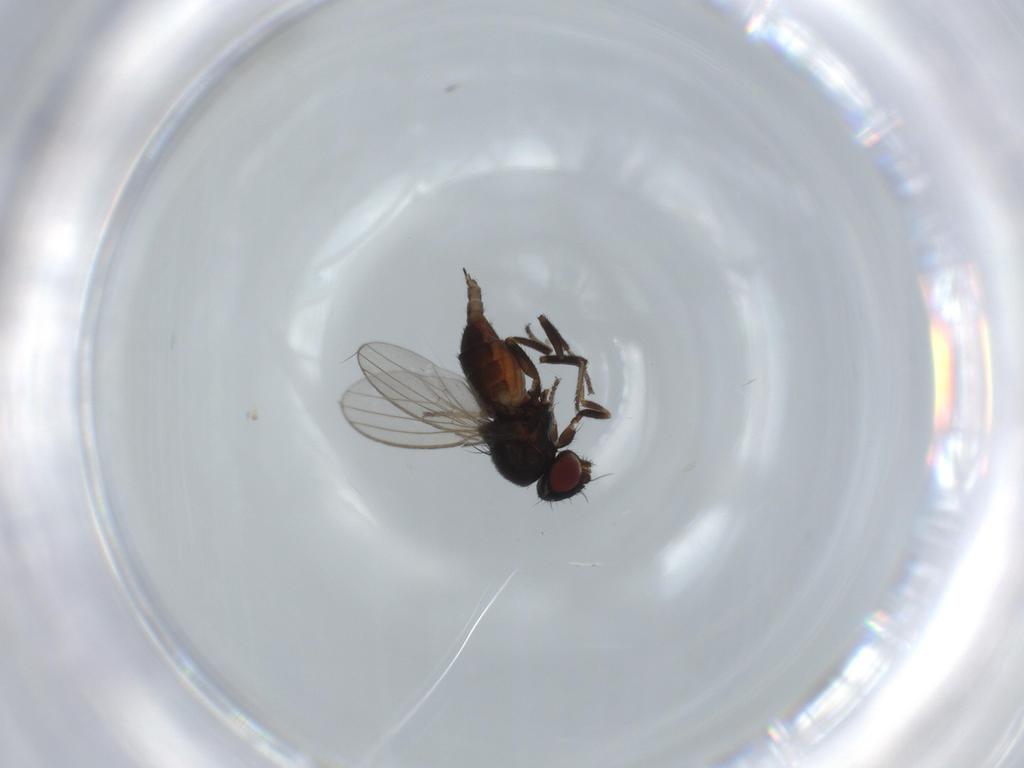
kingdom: Animalia
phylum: Arthropoda
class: Insecta
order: Diptera
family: Milichiidae
